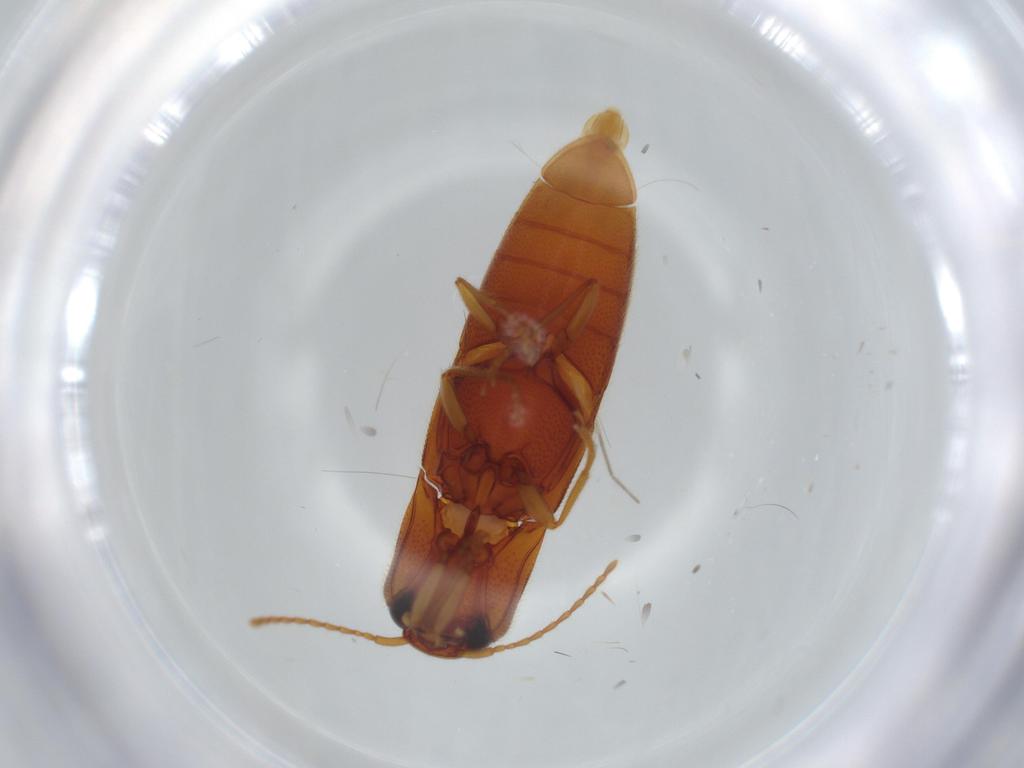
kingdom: Animalia
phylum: Arthropoda
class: Insecta
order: Coleoptera
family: Elateridae
